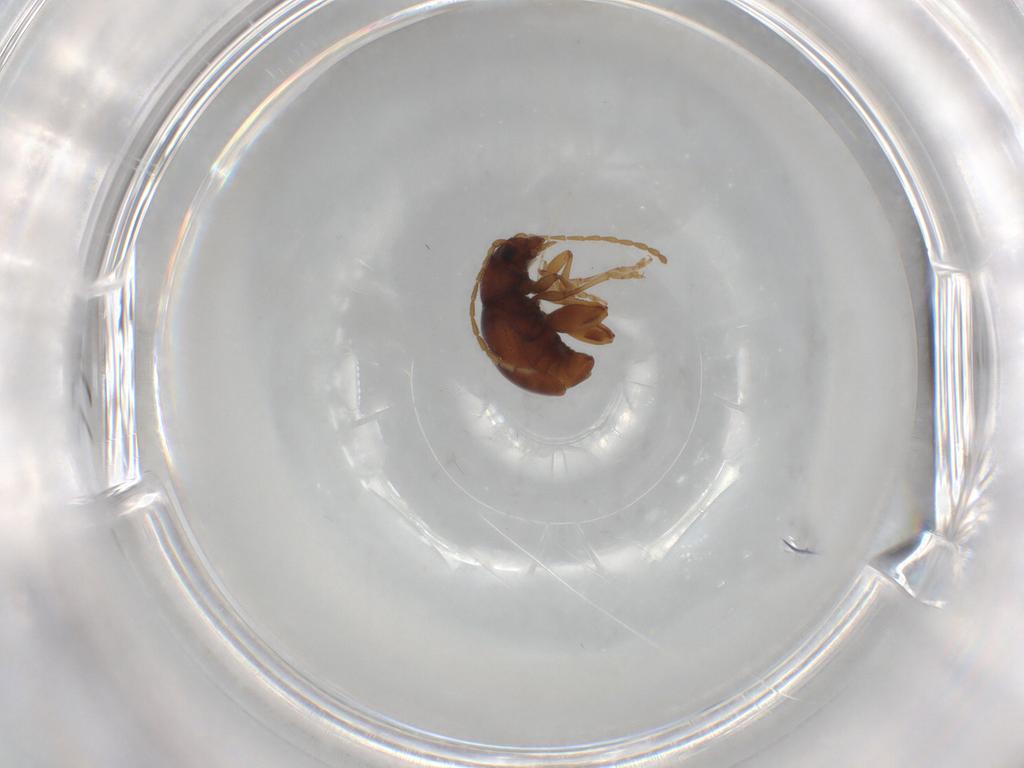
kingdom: Animalia
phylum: Arthropoda
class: Insecta
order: Coleoptera
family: Chrysomelidae
